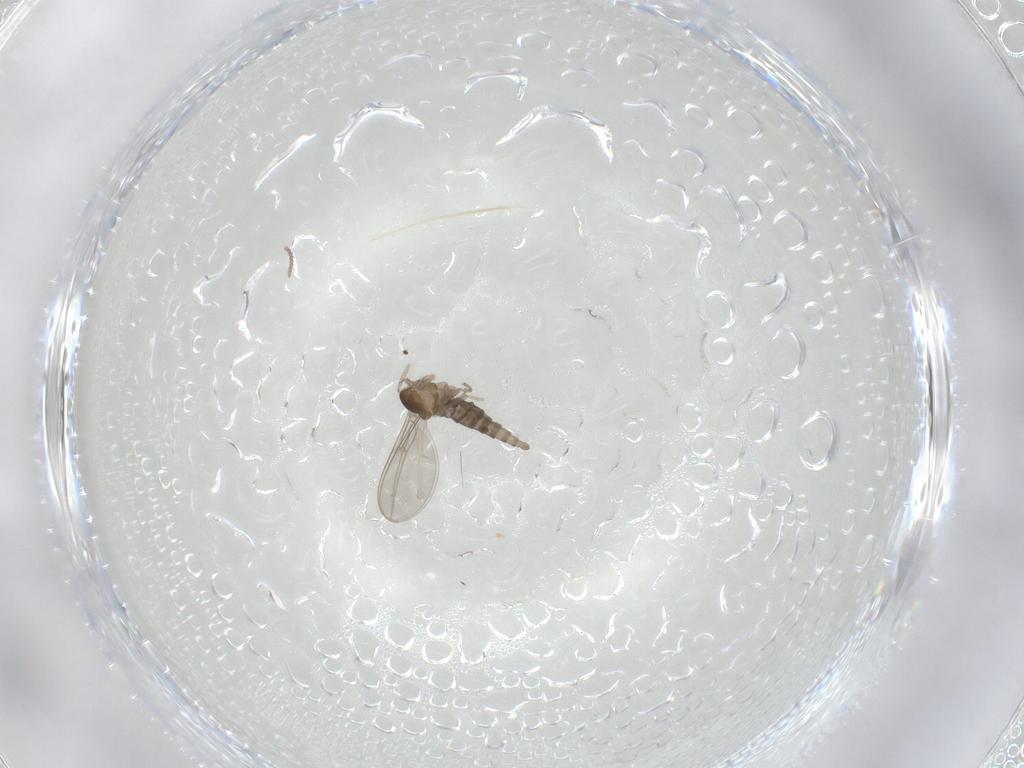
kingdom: Animalia
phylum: Arthropoda
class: Insecta
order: Diptera
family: Cecidomyiidae
